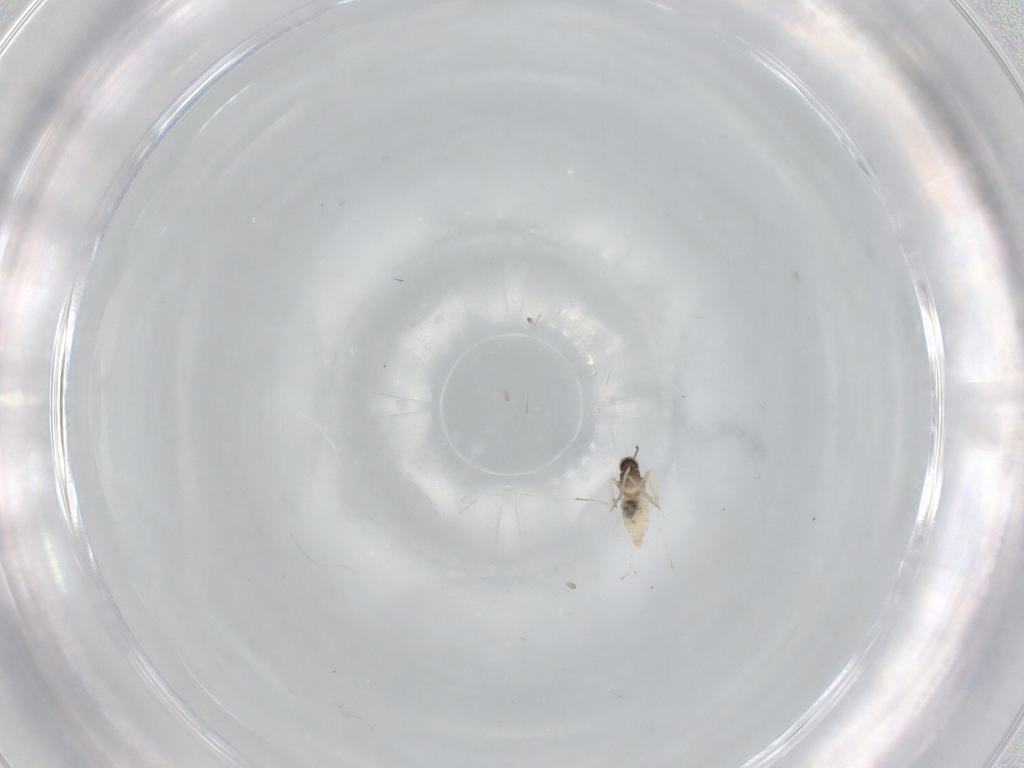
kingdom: Animalia
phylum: Arthropoda
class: Insecta
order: Diptera
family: Cecidomyiidae
